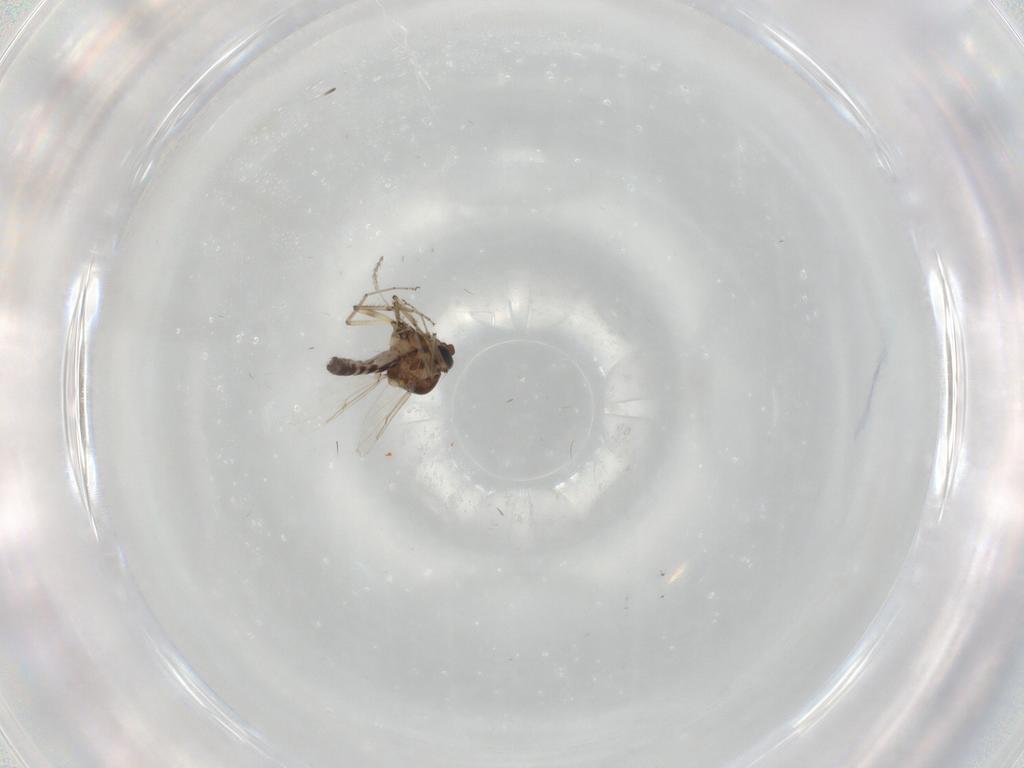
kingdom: Animalia
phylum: Arthropoda
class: Insecta
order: Diptera
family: Ceratopogonidae
